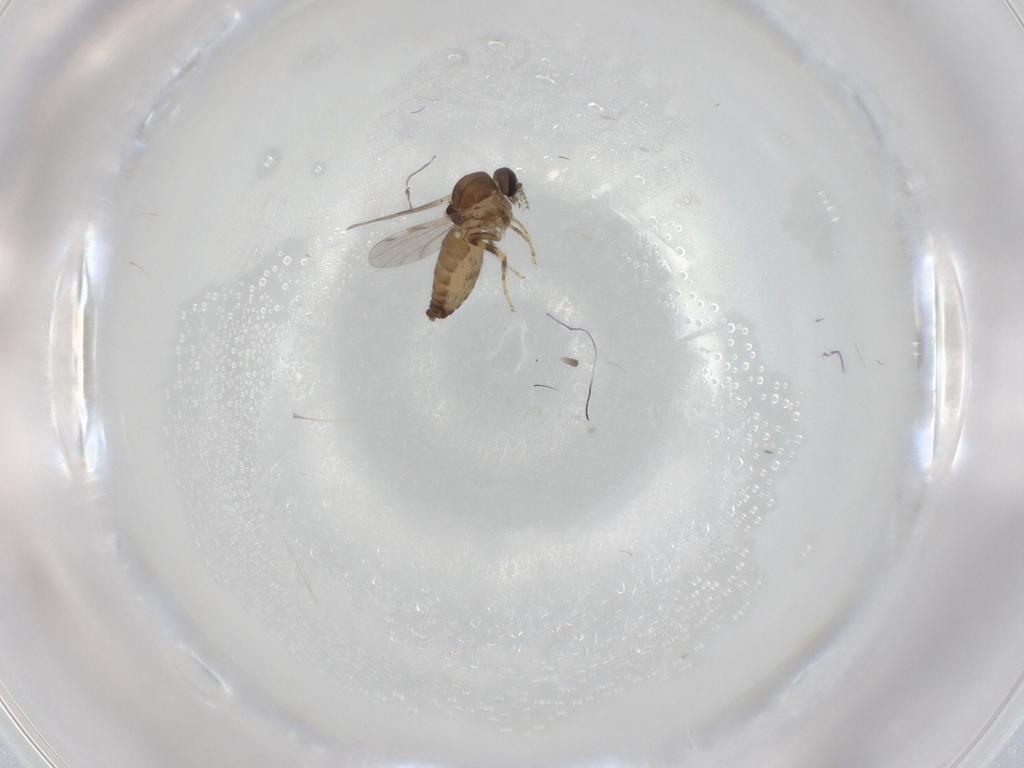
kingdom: Animalia
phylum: Arthropoda
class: Insecta
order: Diptera
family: Ceratopogonidae
